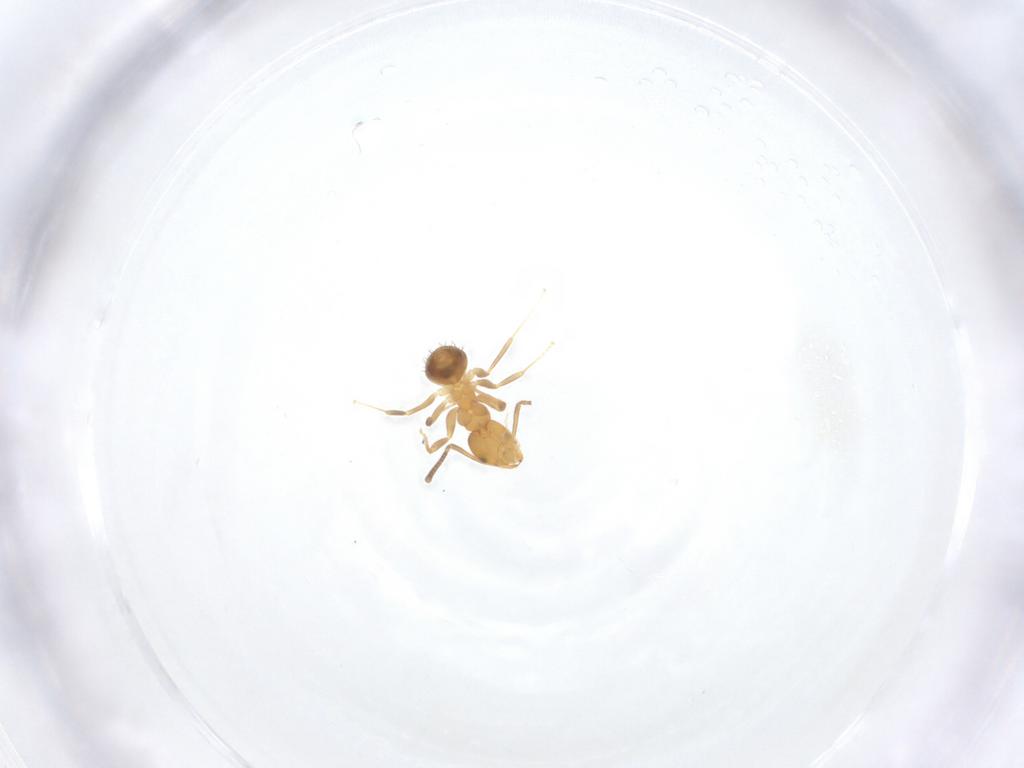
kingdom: Animalia
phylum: Arthropoda
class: Insecta
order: Hymenoptera
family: Formicidae
